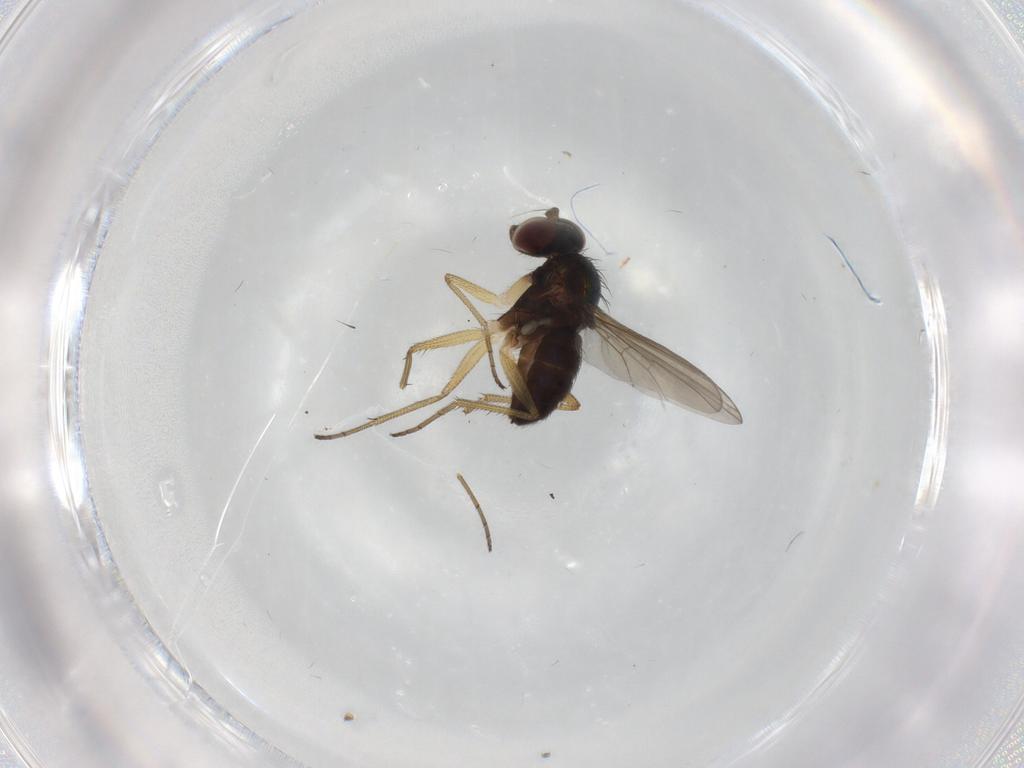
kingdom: Animalia
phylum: Arthropoda
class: Insecta
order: Diptera
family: Dolichopodidae
